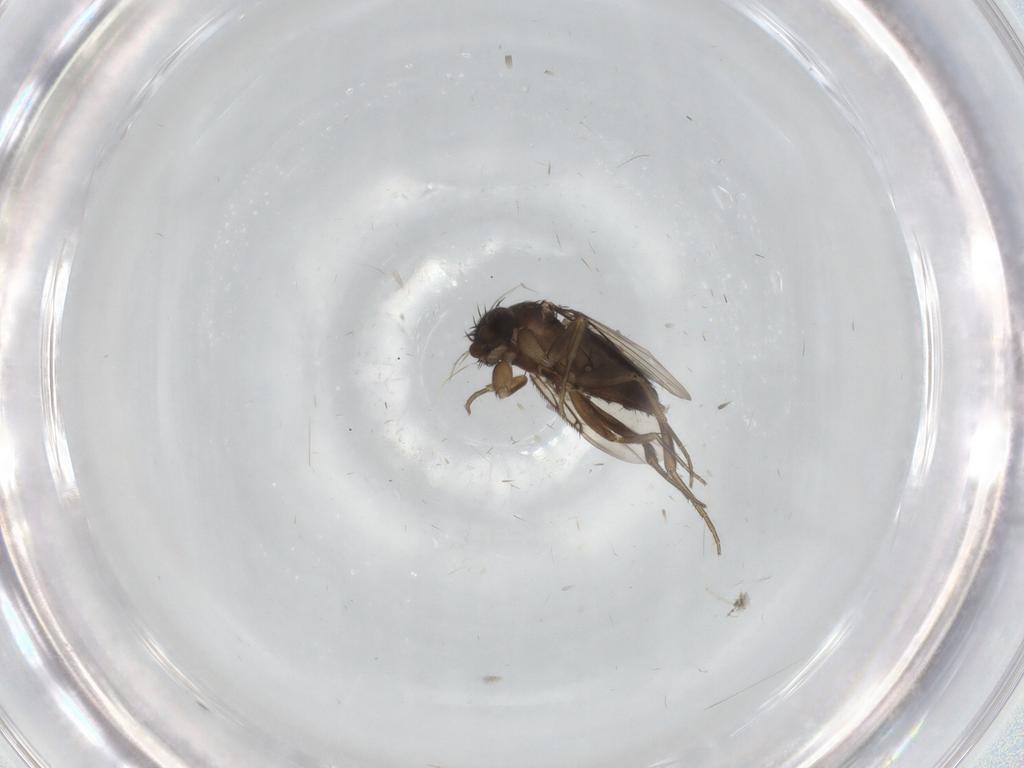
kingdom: Animalia
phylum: Arthropoda
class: Insecta
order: Diptera
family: Phoridae
